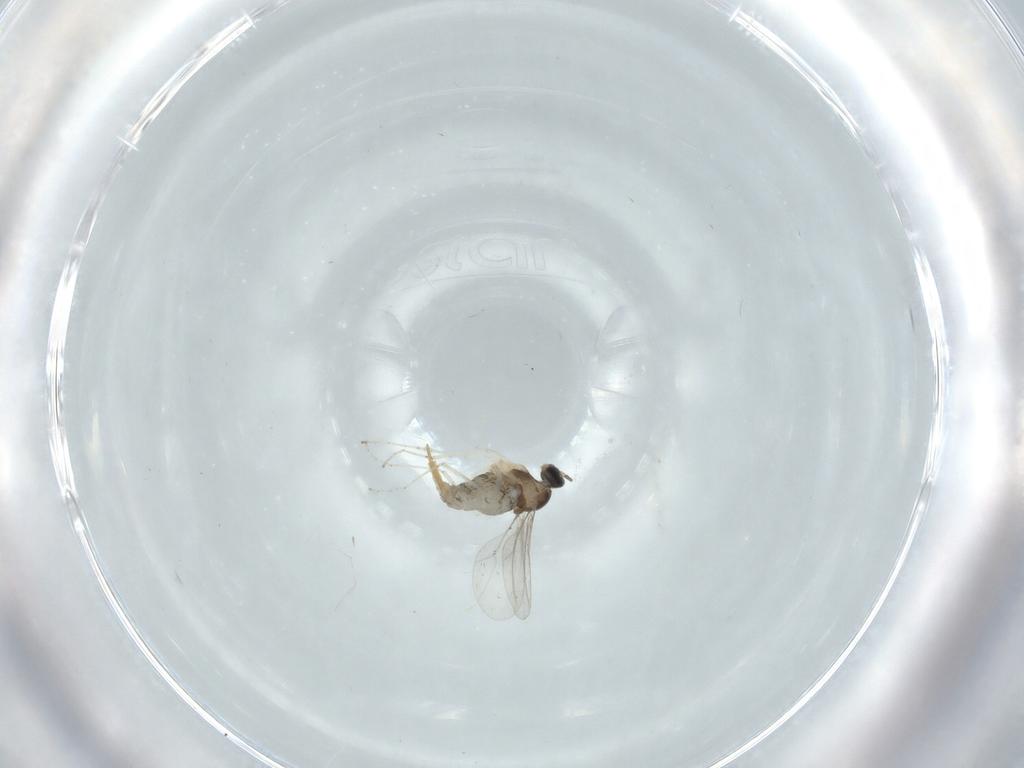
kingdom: Animalia
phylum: Arthropoda
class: Insecta
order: Diptera
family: Cecidomyiidae
